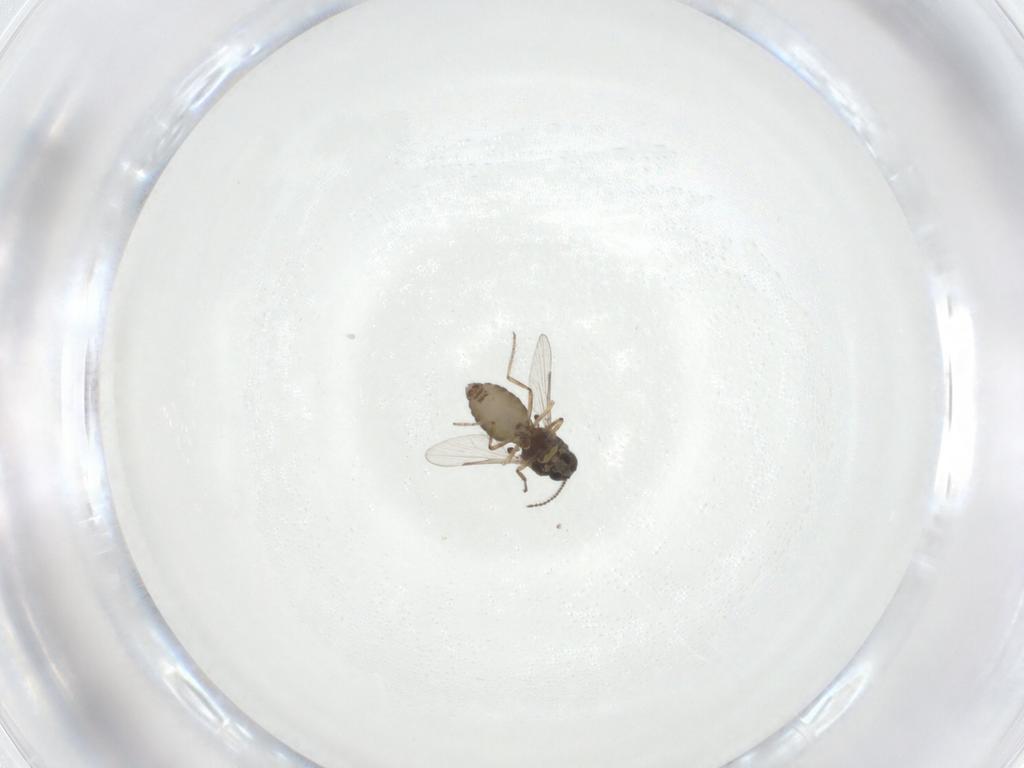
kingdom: Animalia
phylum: Arthropoda
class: Insecta
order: Diptera
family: Ceratopogonidae
